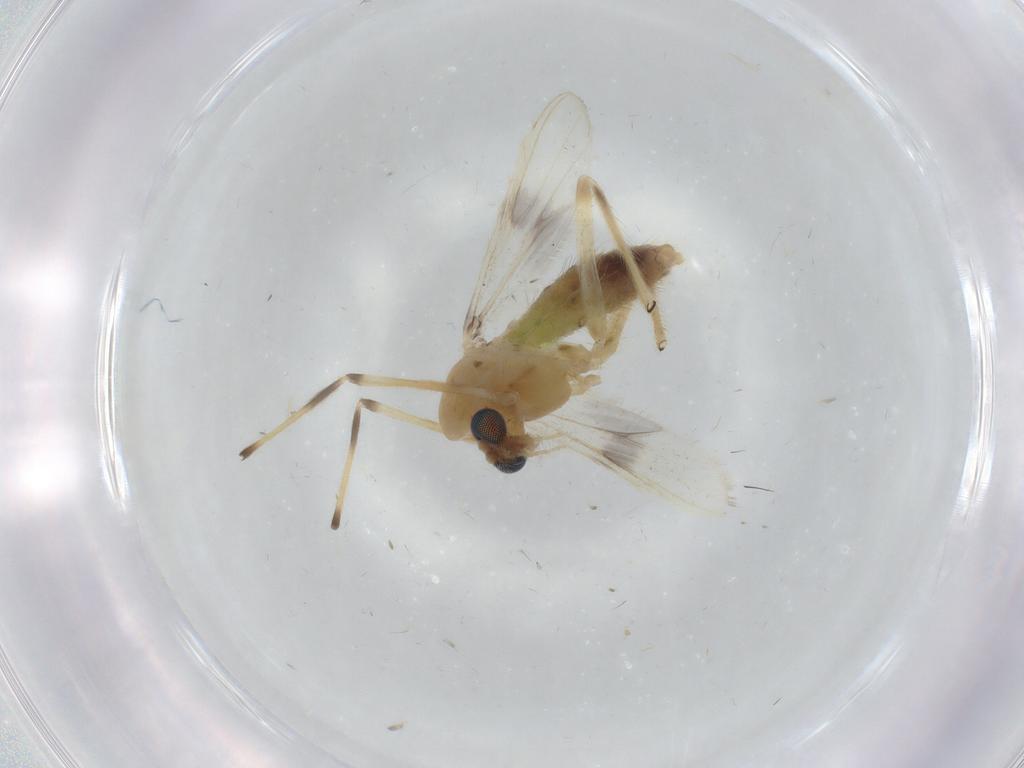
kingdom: Animalia
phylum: Arthropoda
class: Insecta
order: Diptera
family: Chironomidae
